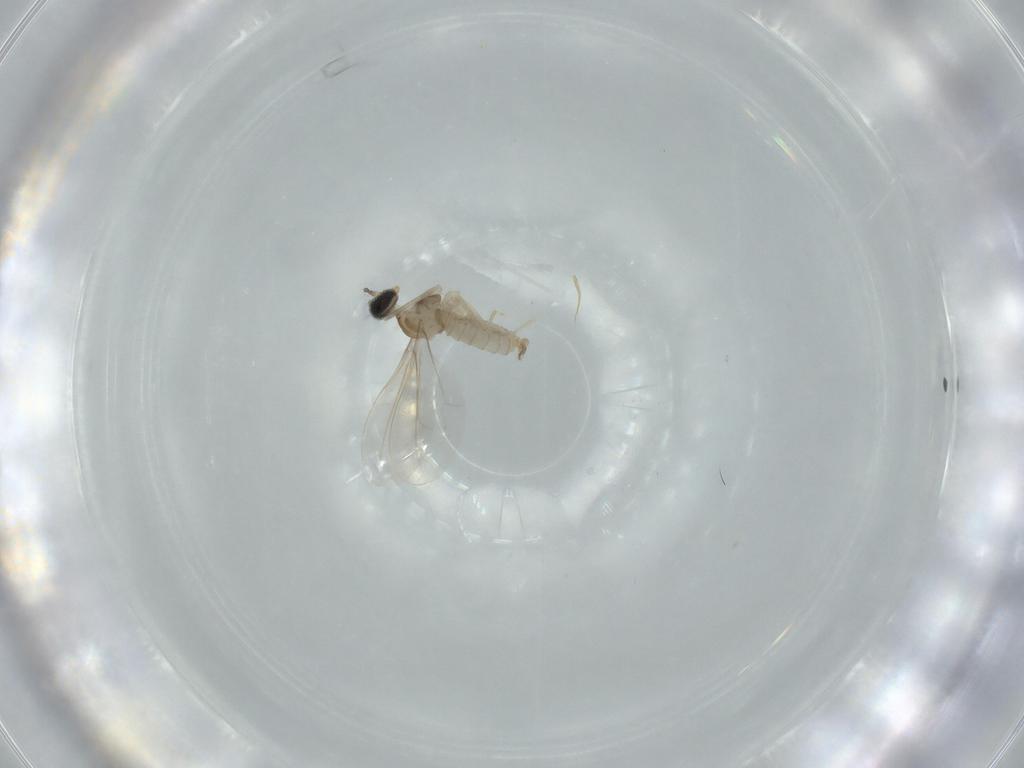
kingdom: Animalia
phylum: Arthropoda
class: Insecta
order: Diptera
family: Cecidomyiidae
